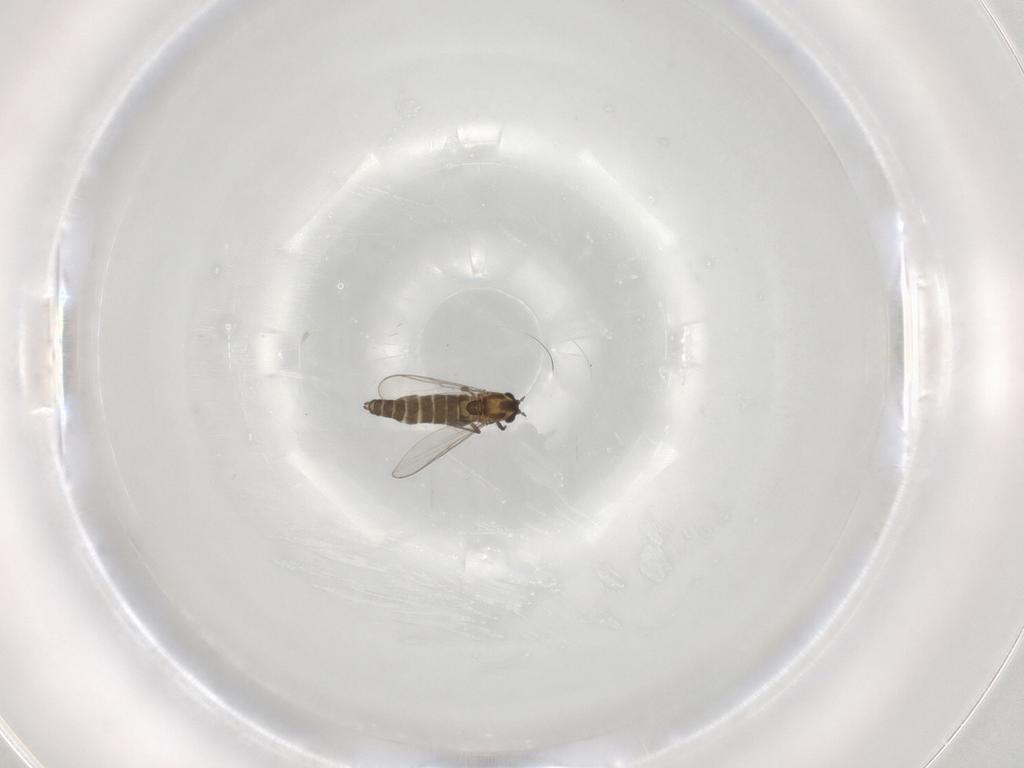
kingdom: Animalia
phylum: Arthropoda
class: Insecta
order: Diptera
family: Chironomidae
